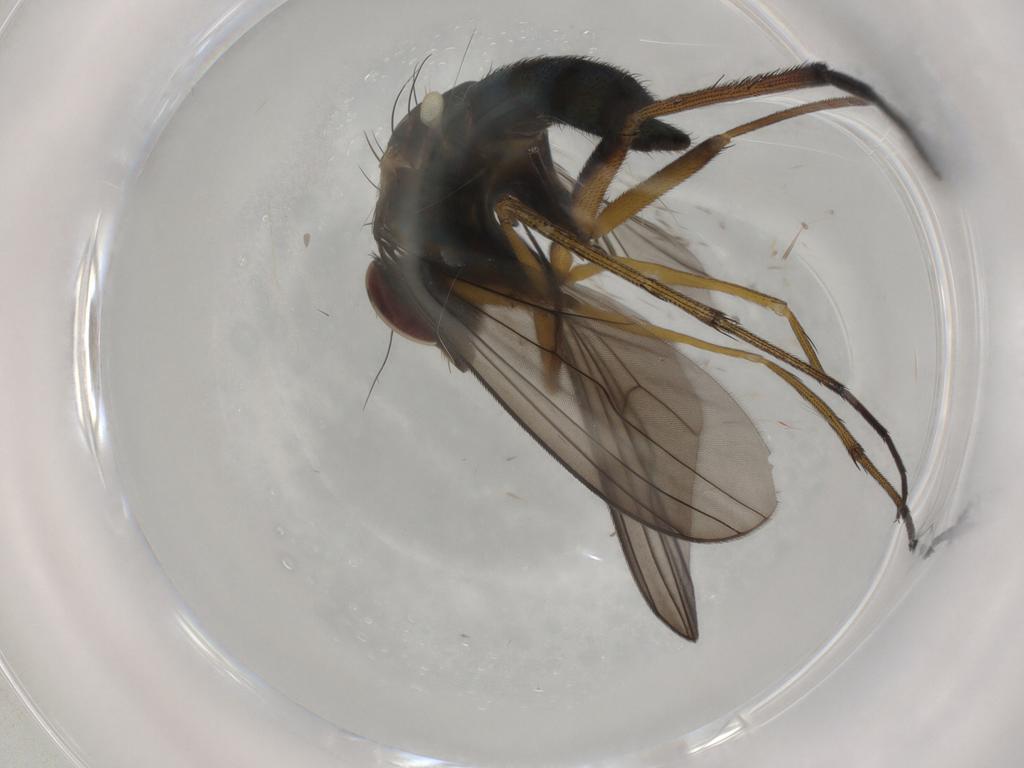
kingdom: Animalia
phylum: Arthropoda
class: Insecta
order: Diptera
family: Dolichopodidae
